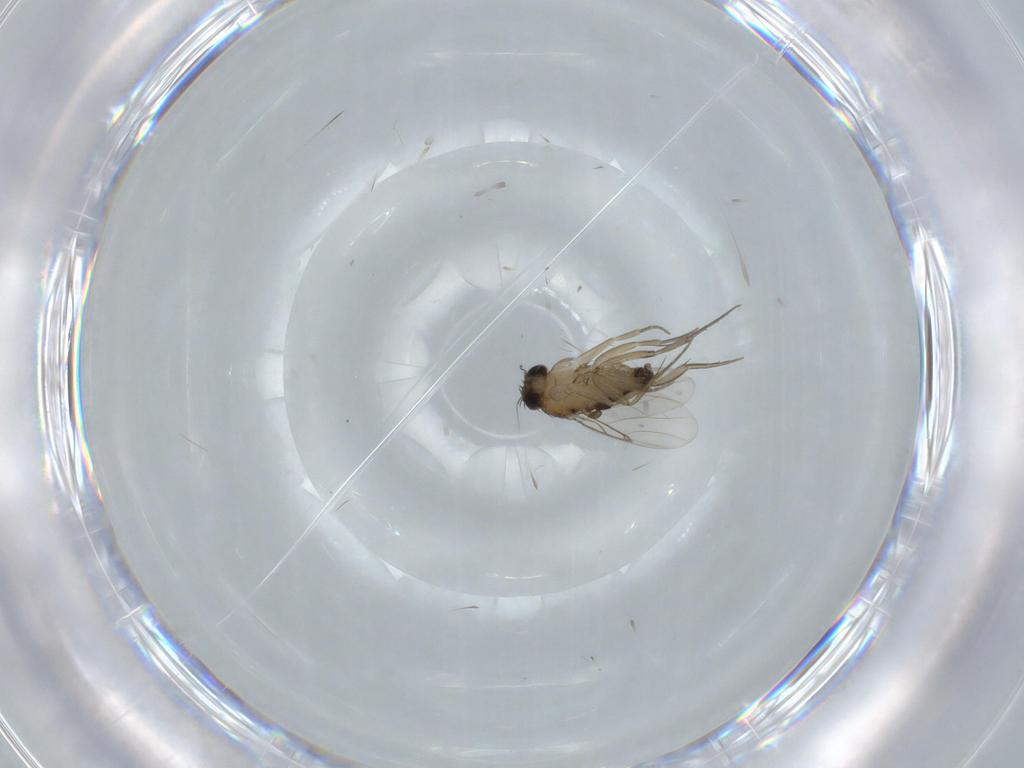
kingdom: Animalia
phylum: Arthropoda
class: Insecta
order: Diptera
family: Phoridae
